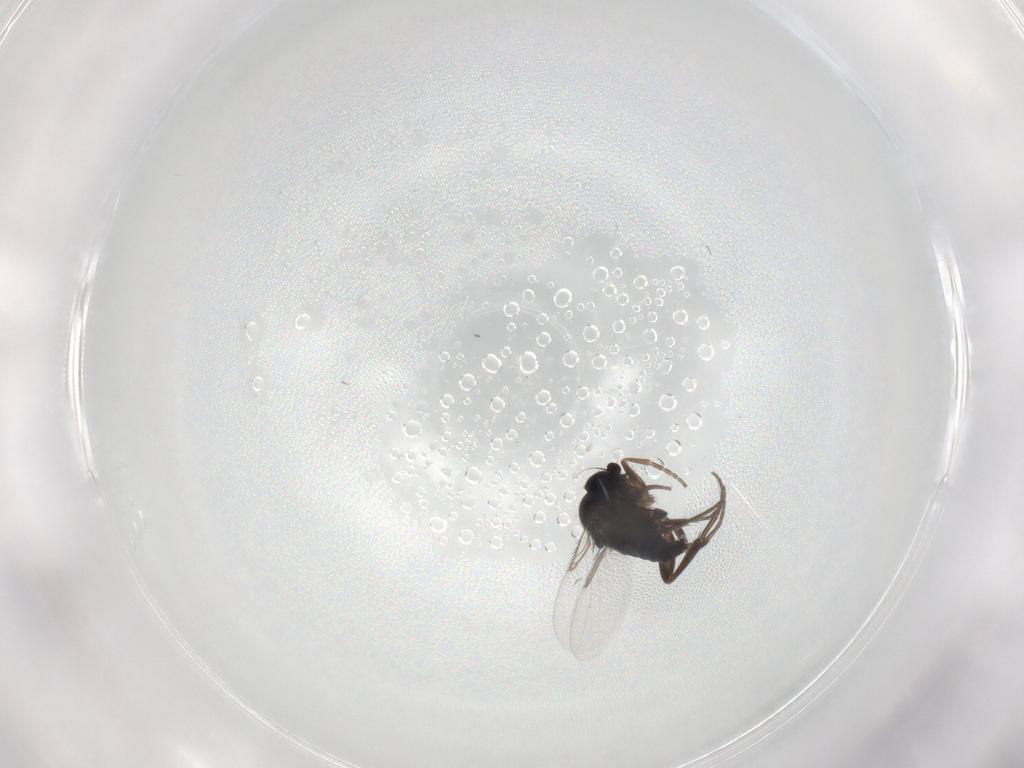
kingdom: Animalia
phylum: Arthropoda
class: Insecta
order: Diptera
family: Phoridae
